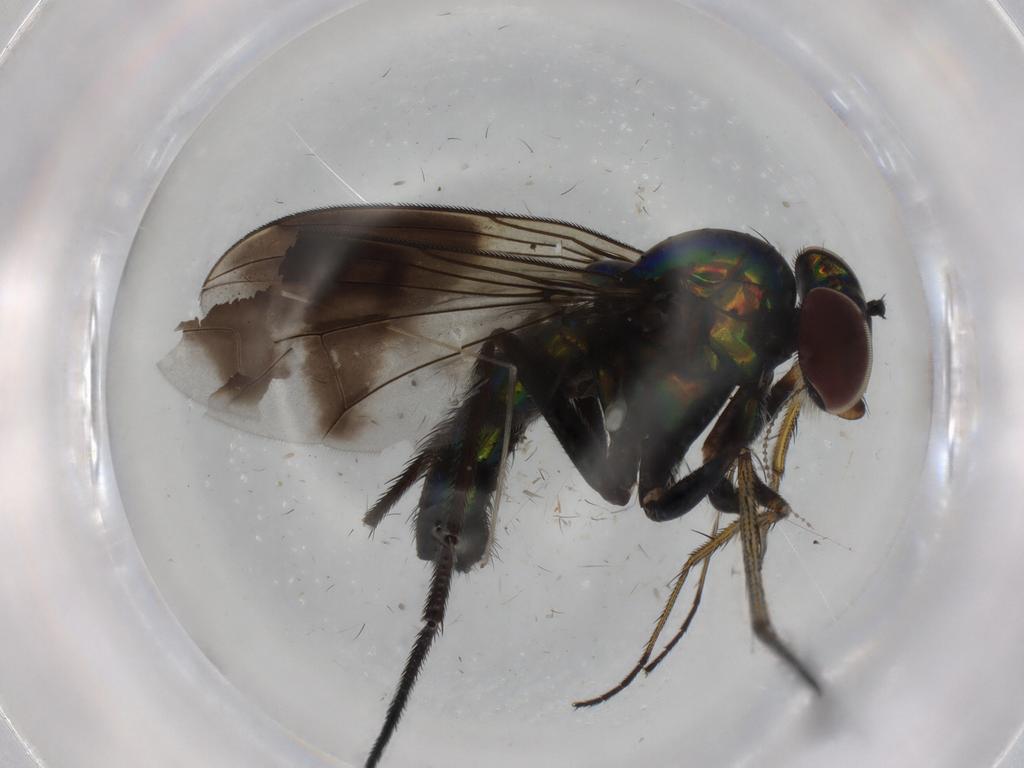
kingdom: Animalia
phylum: Arthropoda
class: Insecta
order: Diptera
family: Dolichopodidae
